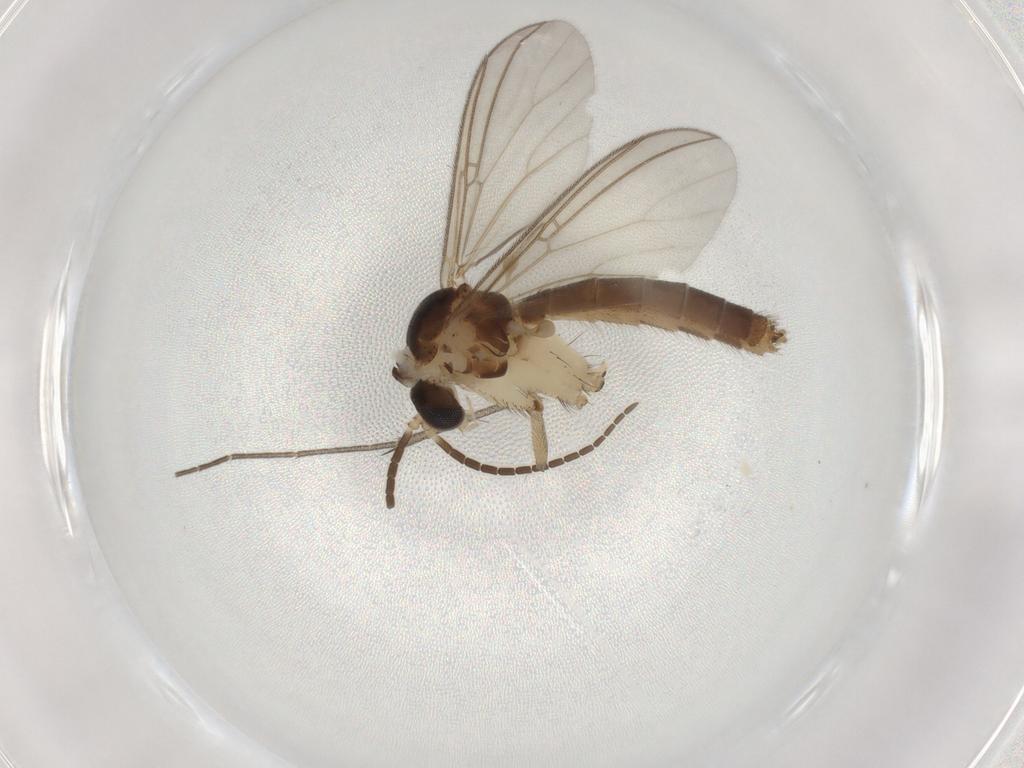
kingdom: Animalia
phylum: Arthropoda
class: Insecta
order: Diptera
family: Mycetophilidae
